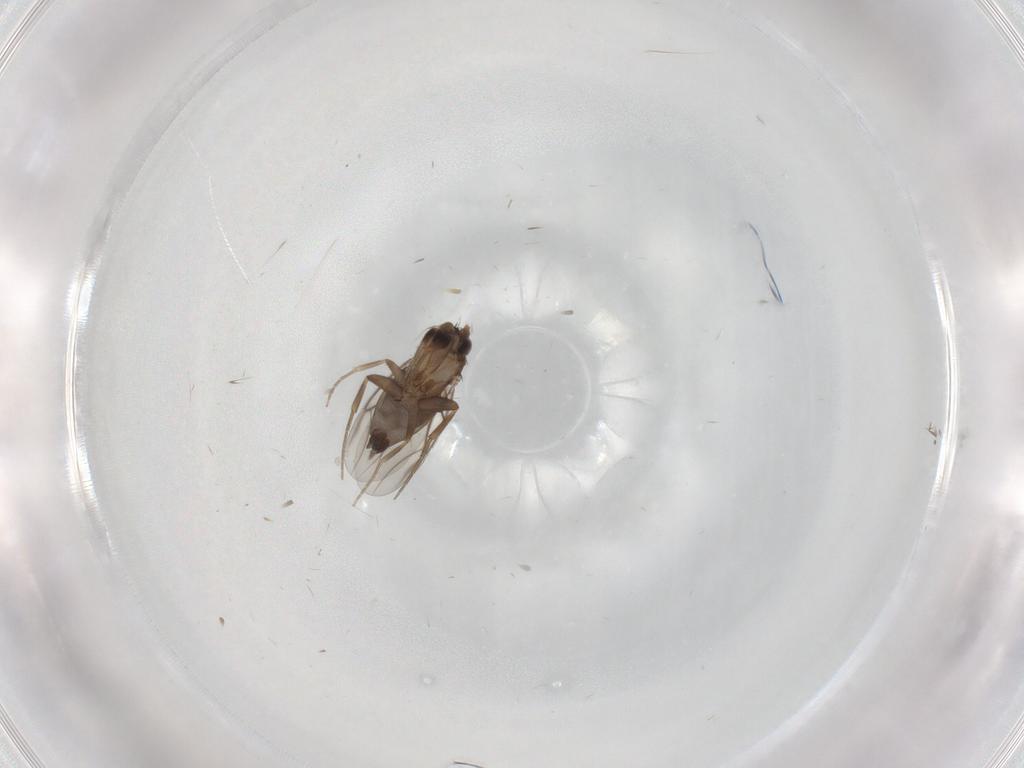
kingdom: Animalia
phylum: Arthropoda
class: Insecta
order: Diptera
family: Phoridae
